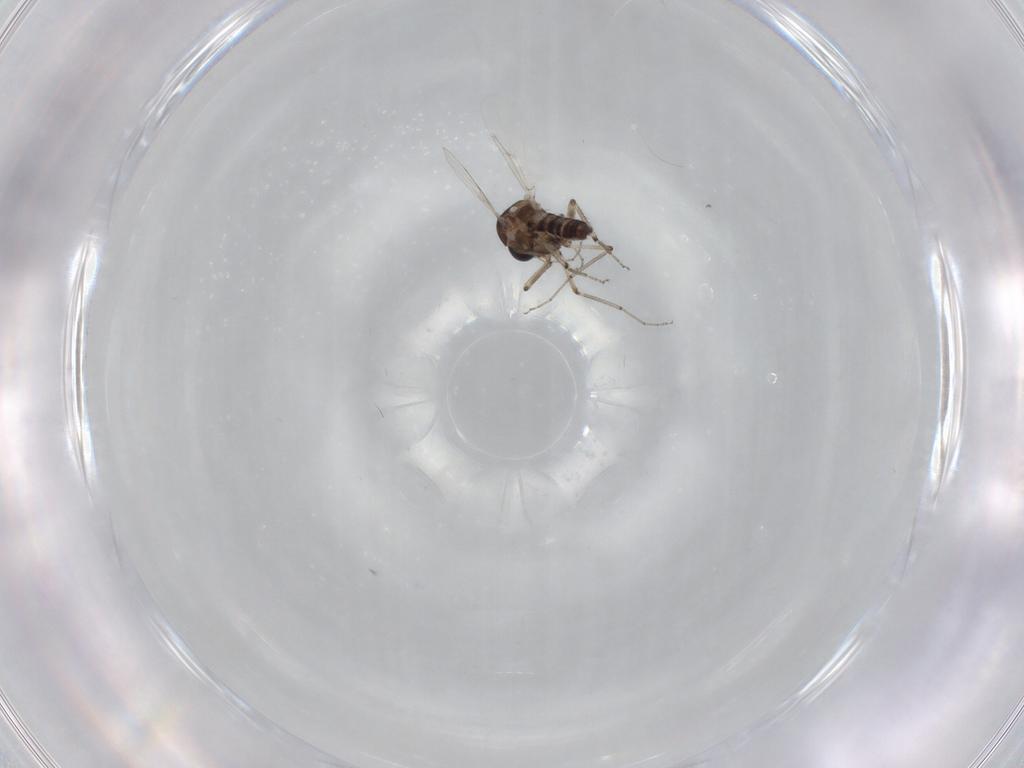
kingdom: Animalia
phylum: Arthropoda
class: Insecta
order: Diptera
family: Ceratopogonidae
